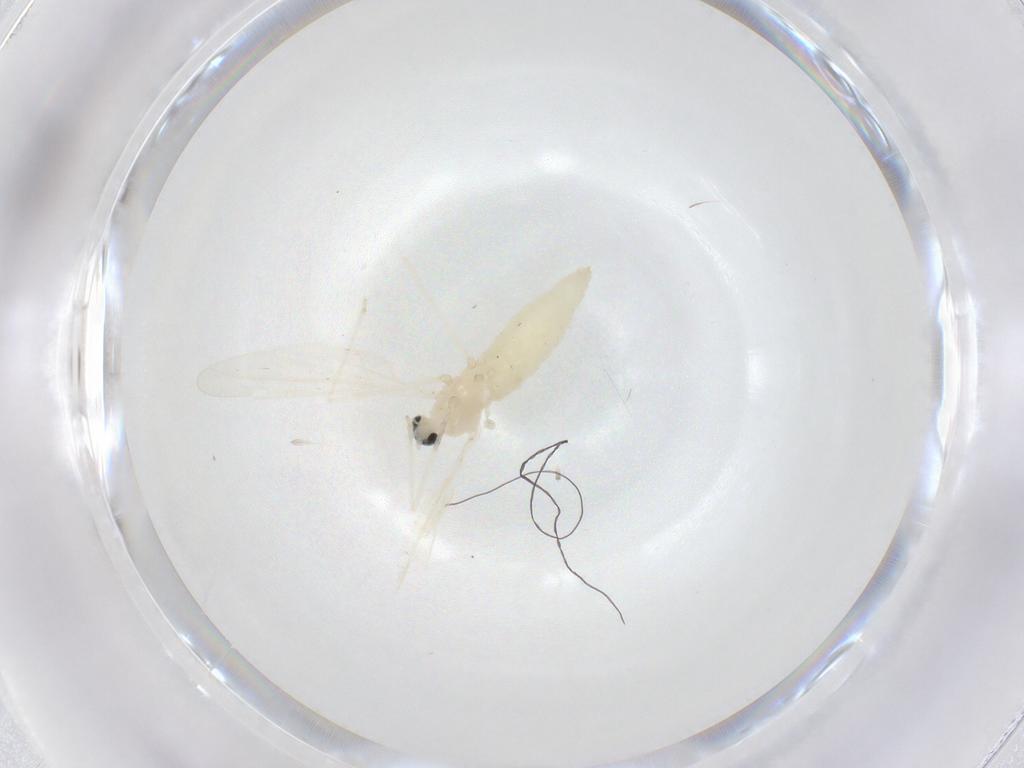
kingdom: Animalia
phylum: Arthropoda
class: Insecta
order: Diptera
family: Cecidomyiidae
